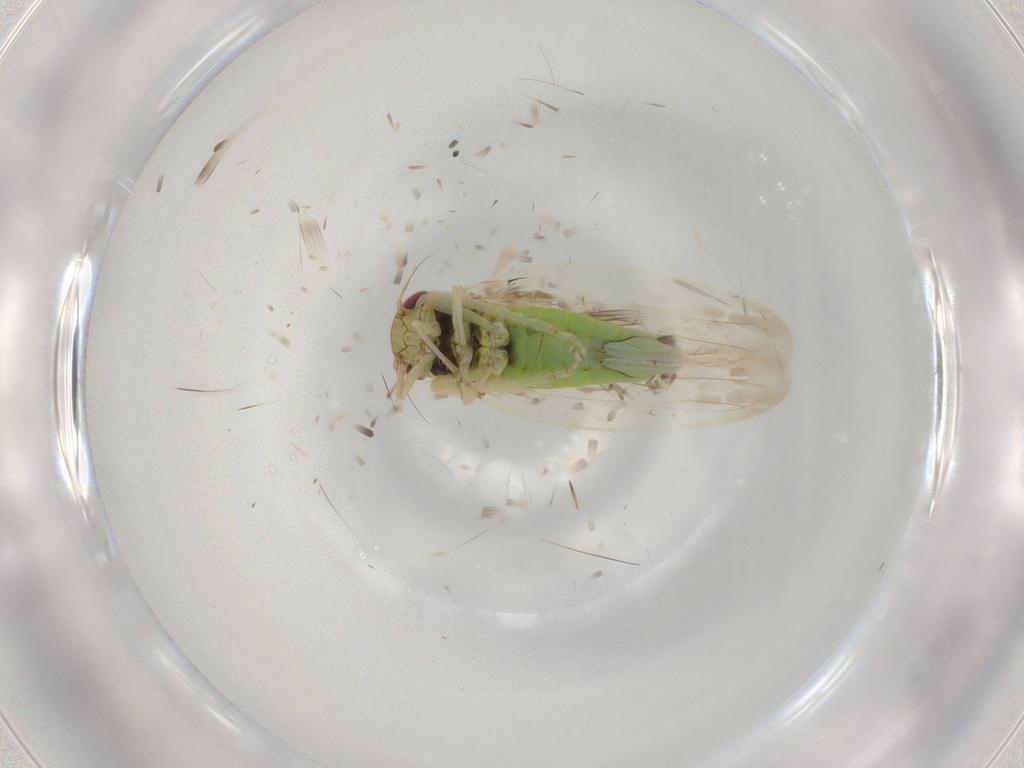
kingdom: Animalia
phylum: Arthropoda
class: Insecta
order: Hemiptera
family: Cicadellidae
